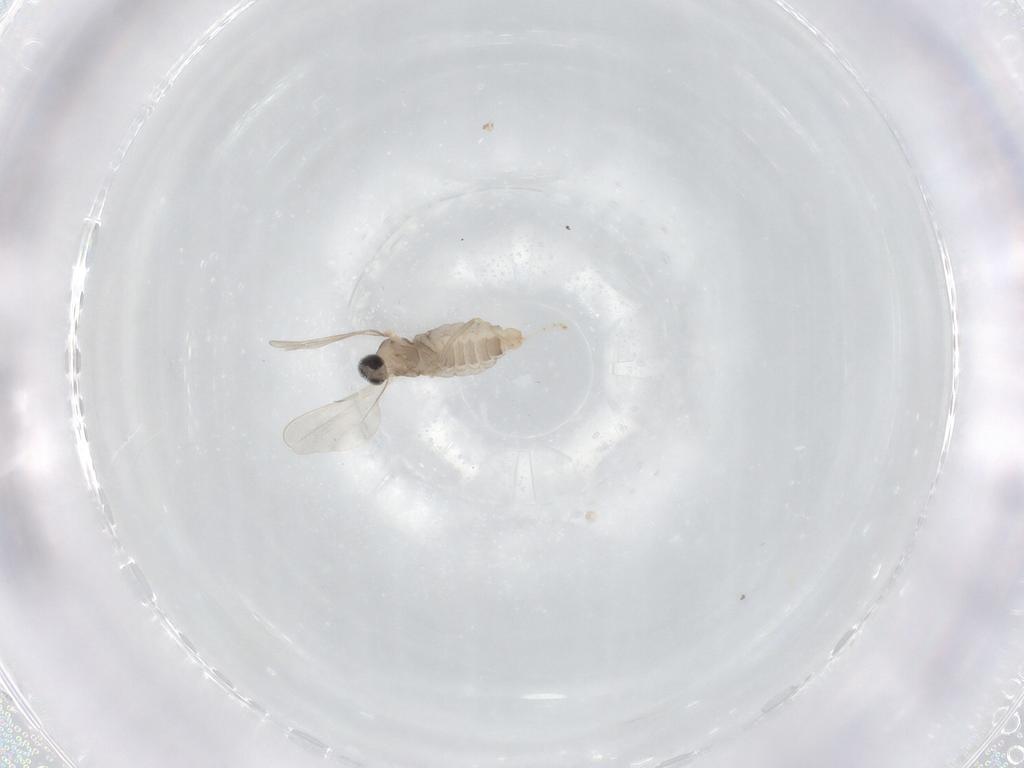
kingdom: Animalia
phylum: Arthropoda
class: Insecta
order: Diptera
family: Cecidomyiidae
